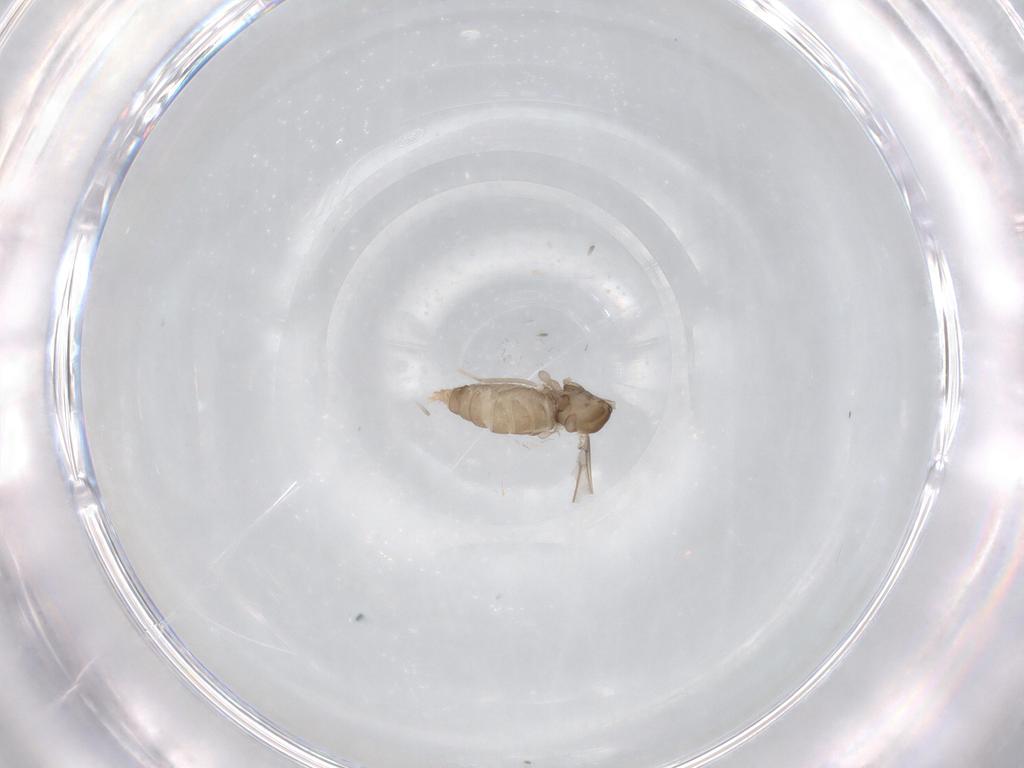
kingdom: Animalia
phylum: Arthropoda
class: Insecta
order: Diptera
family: Cecidomyiidae
